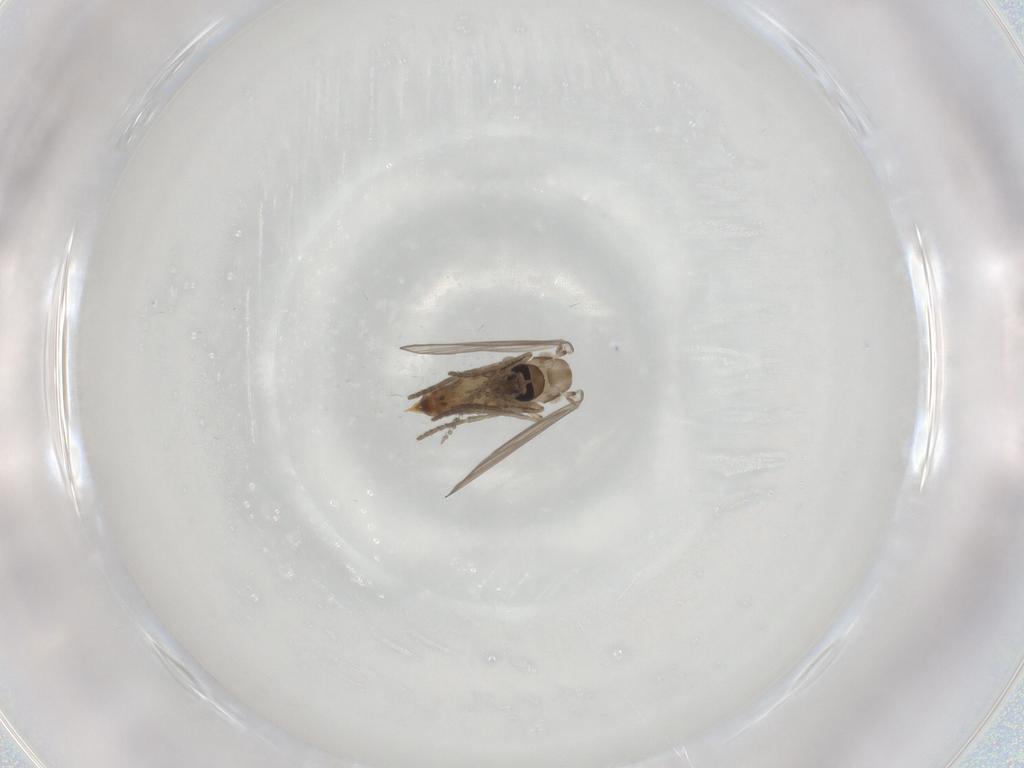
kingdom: Animalia
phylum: Arthropoda
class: Insecta
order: Diptera
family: Psychodidae
